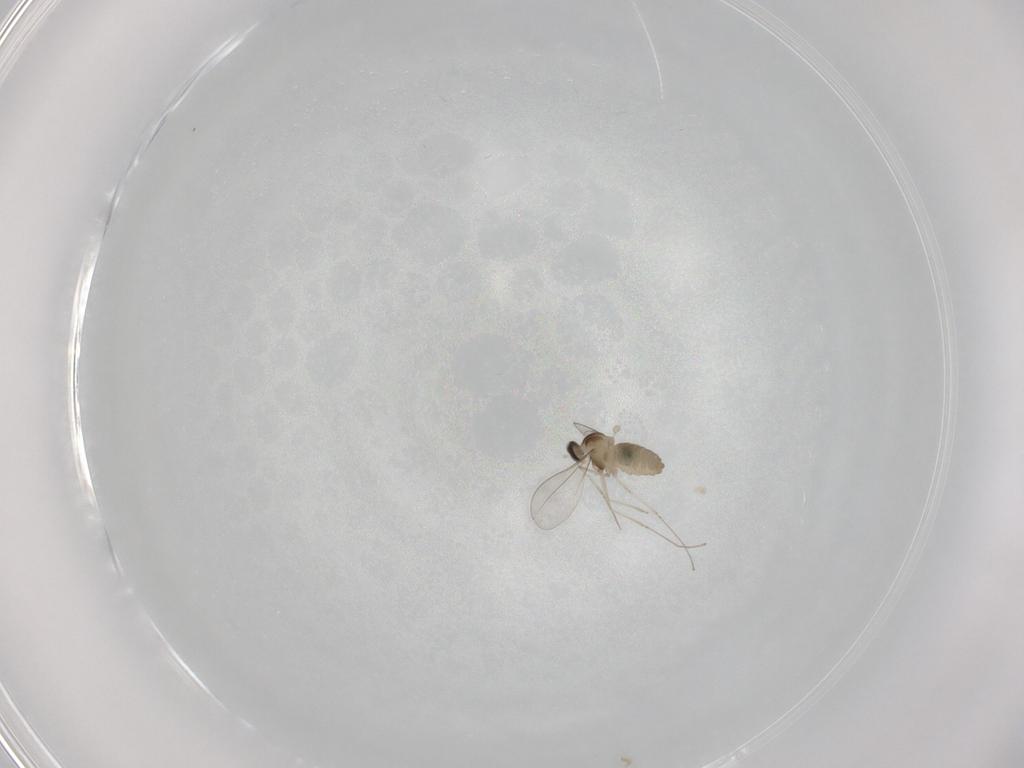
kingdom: Animalia
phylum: Arthropoda
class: Insecta
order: Diptera
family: Cecidomyiidae
